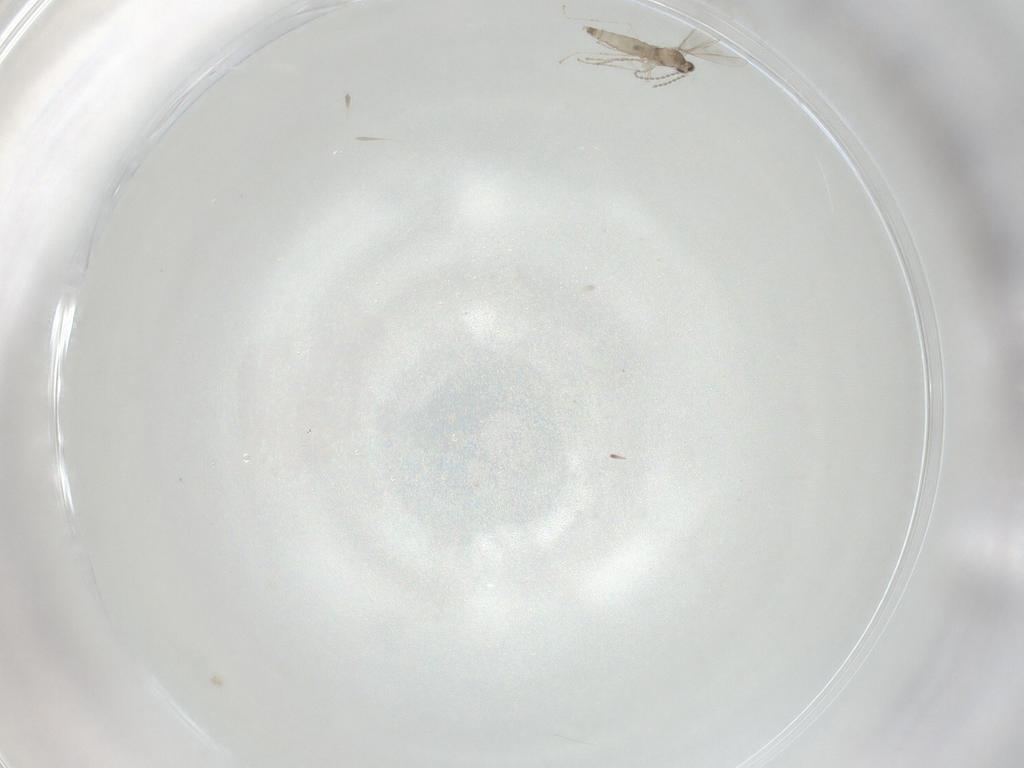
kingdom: Animalia
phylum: Arthropoda
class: Insecta
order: Diptera
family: Cecidomyiidae
